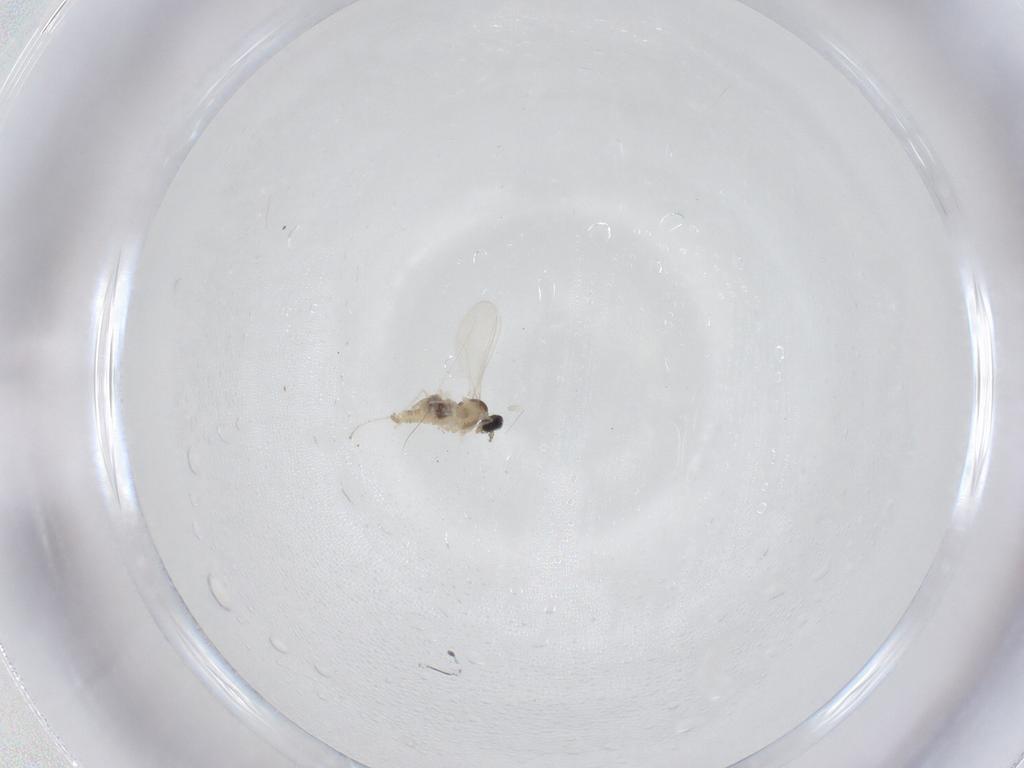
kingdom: Animalia
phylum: Arthropoda
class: Insecta
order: Diptera
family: Cecidomyiidae
